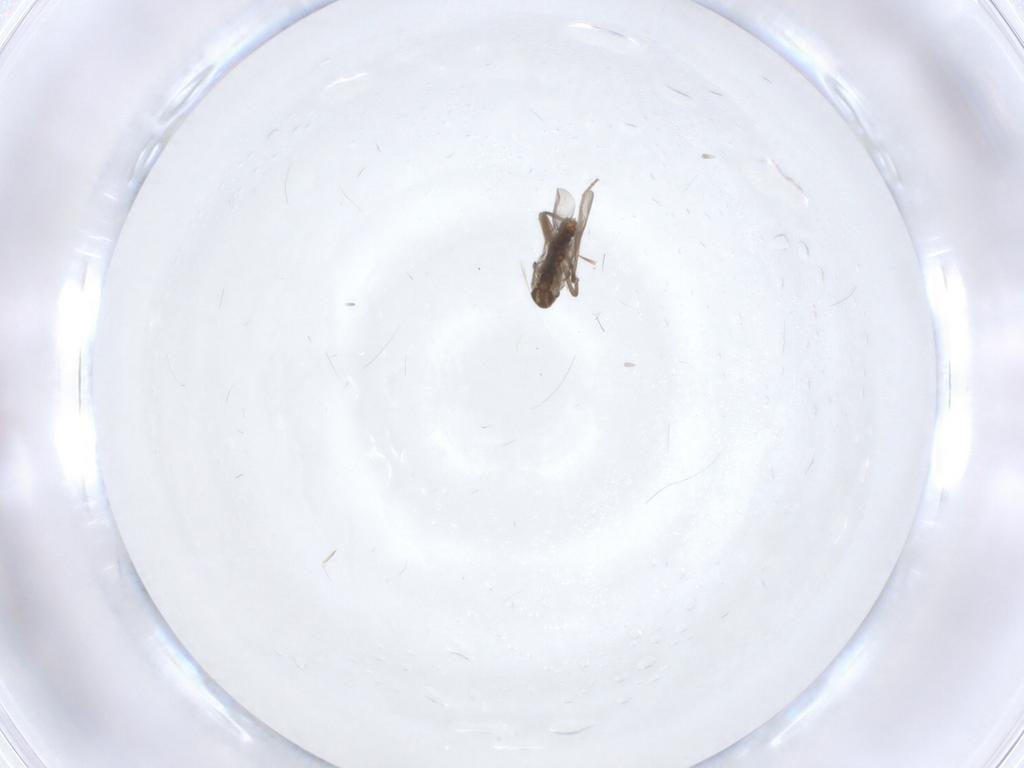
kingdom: Animalia
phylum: Arthropoda
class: Insecta
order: Diptera
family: Chironomidae
